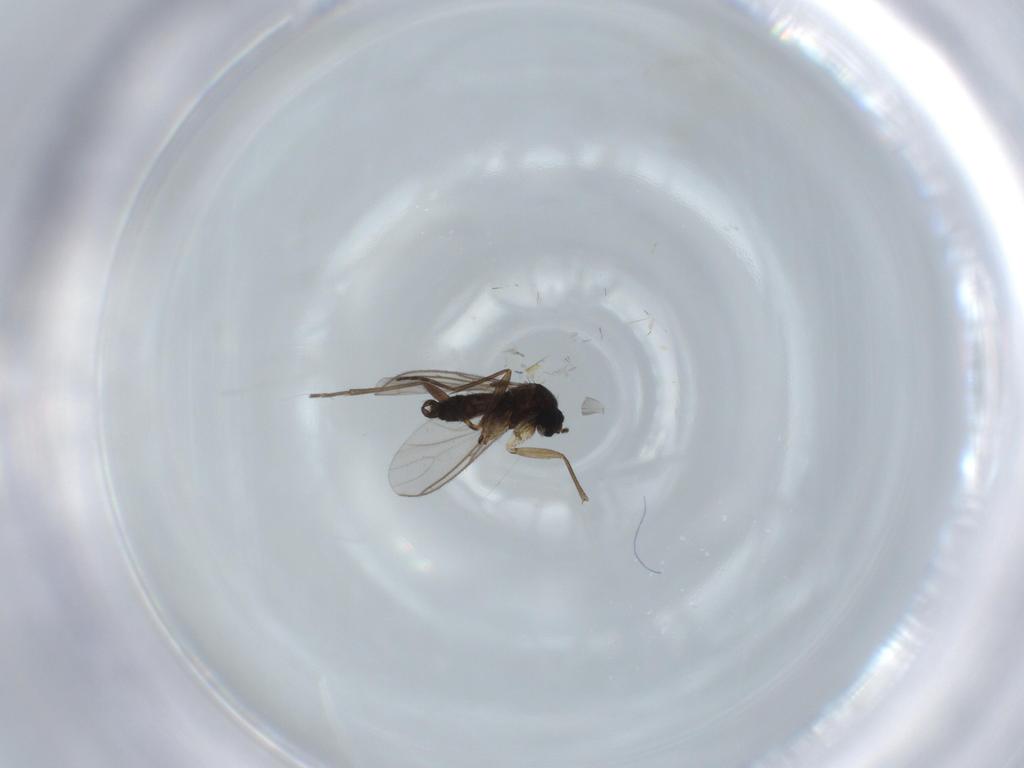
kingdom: Animalia
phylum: Arthropoda
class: Insecta
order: Diptera
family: Sciaridae
